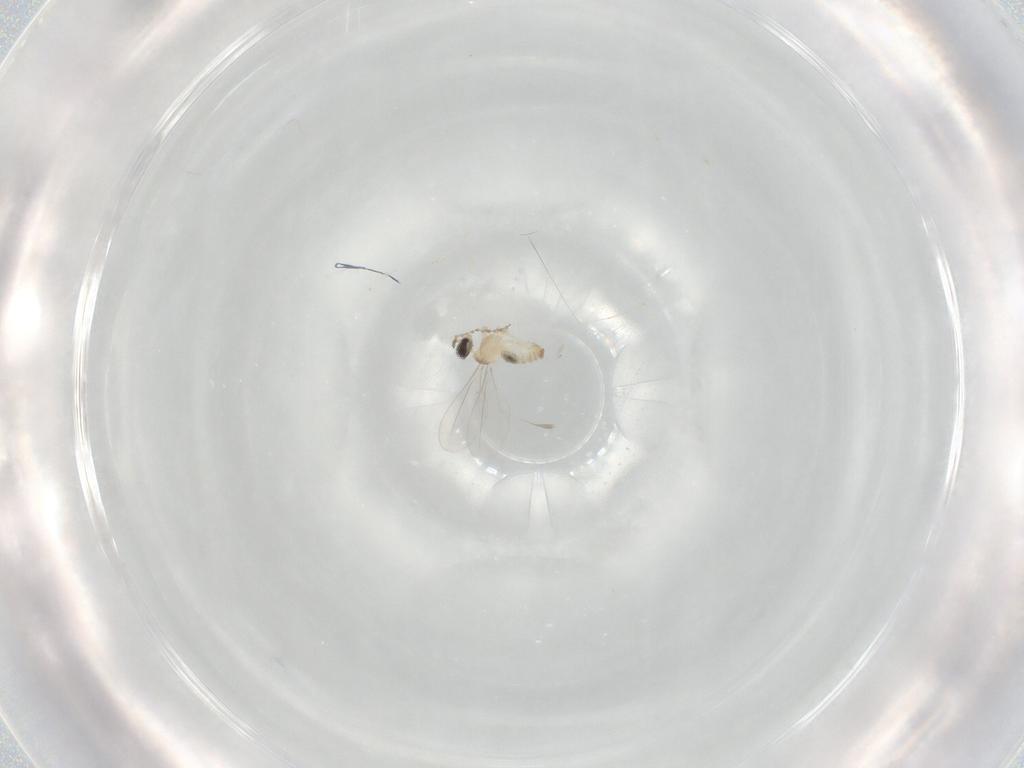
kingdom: Animalia
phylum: Arthropoda
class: Insecta
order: Diptera
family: Cecidomyiidae
